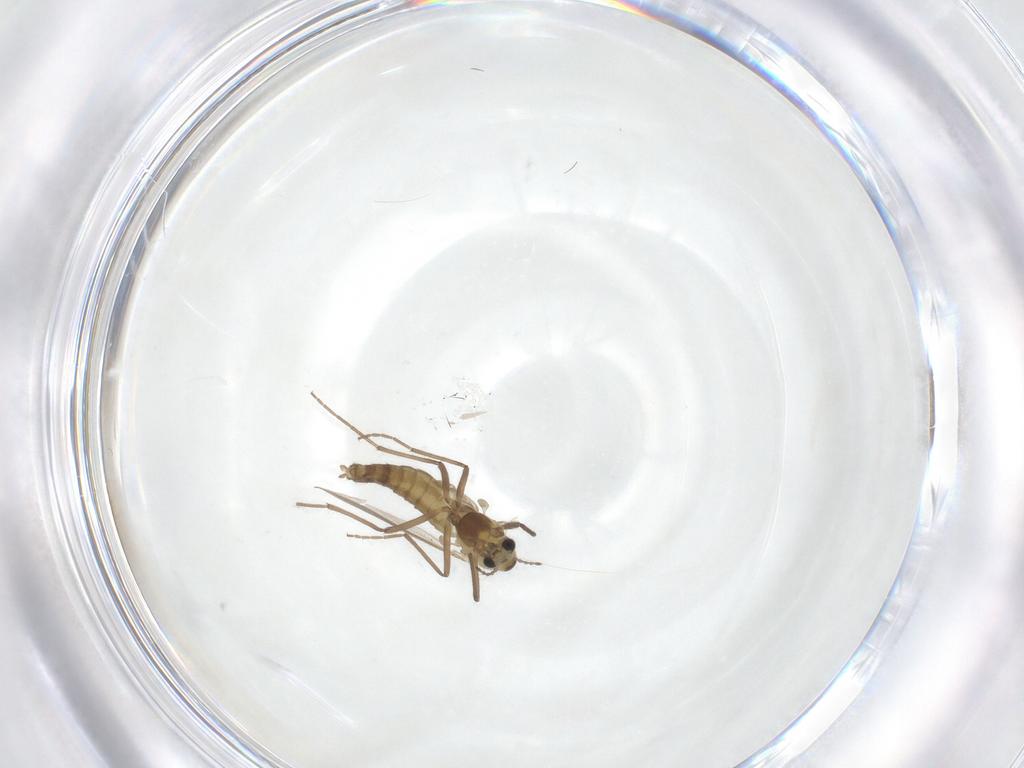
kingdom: Animalia
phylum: Arthropoda
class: Insecta
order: Diptera
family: Chironomidae
